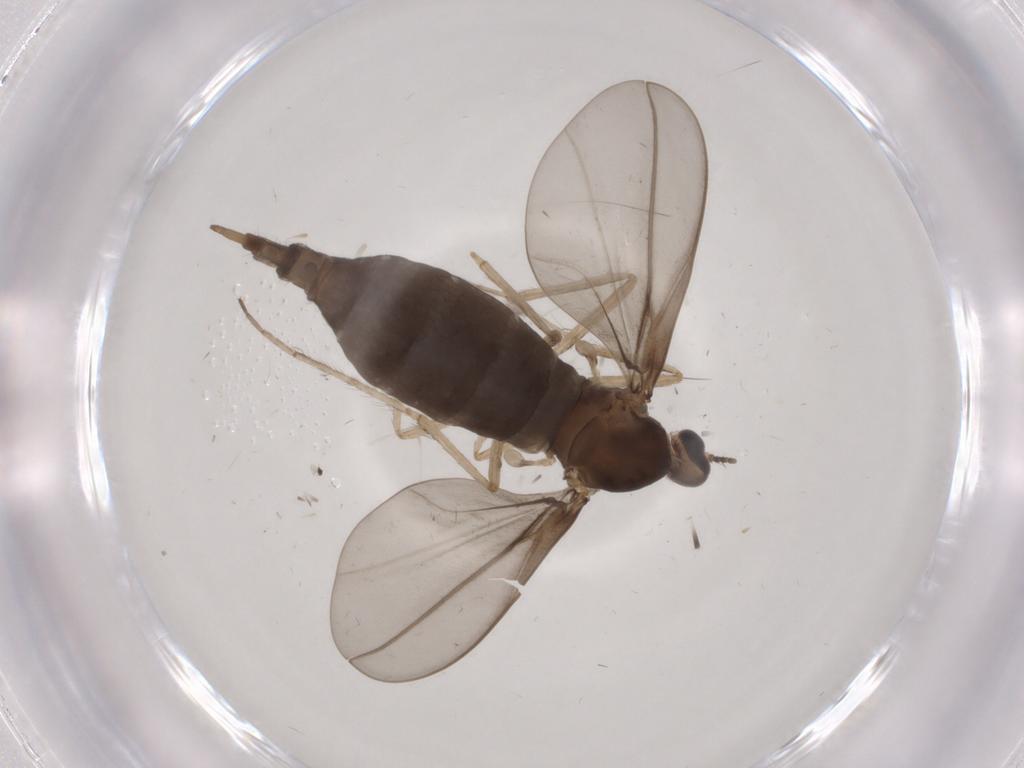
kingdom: Animalia
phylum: Arthropoda
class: Insecta
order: Diptera
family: Cecidomyiidae
